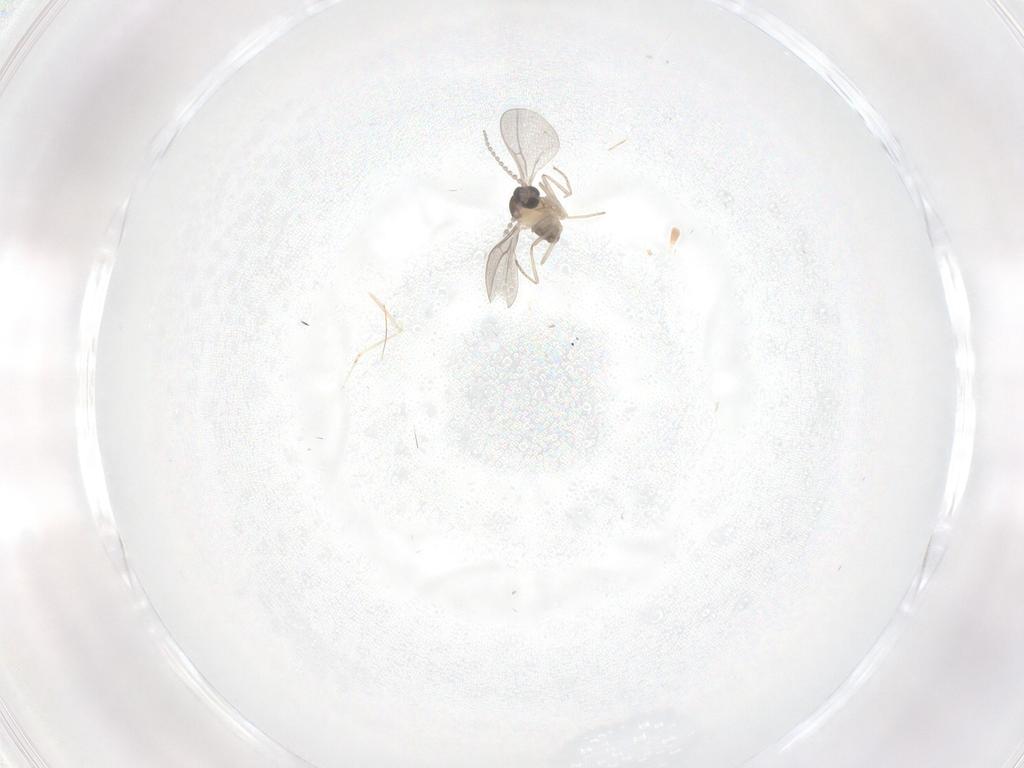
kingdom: Animalia
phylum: Arthropoda
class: Insecta
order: Diptera
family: Cecidomyiidae
